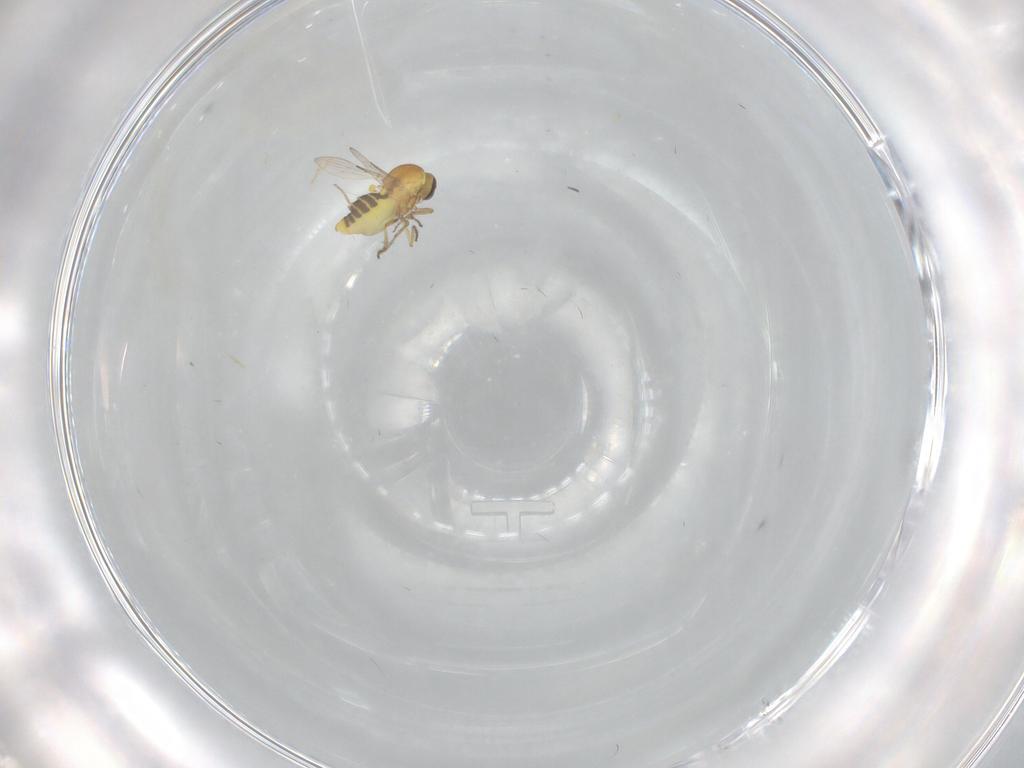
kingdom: Animalia
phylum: Arthropoda
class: Insecta
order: Diptera
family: Ceratopogonidae
